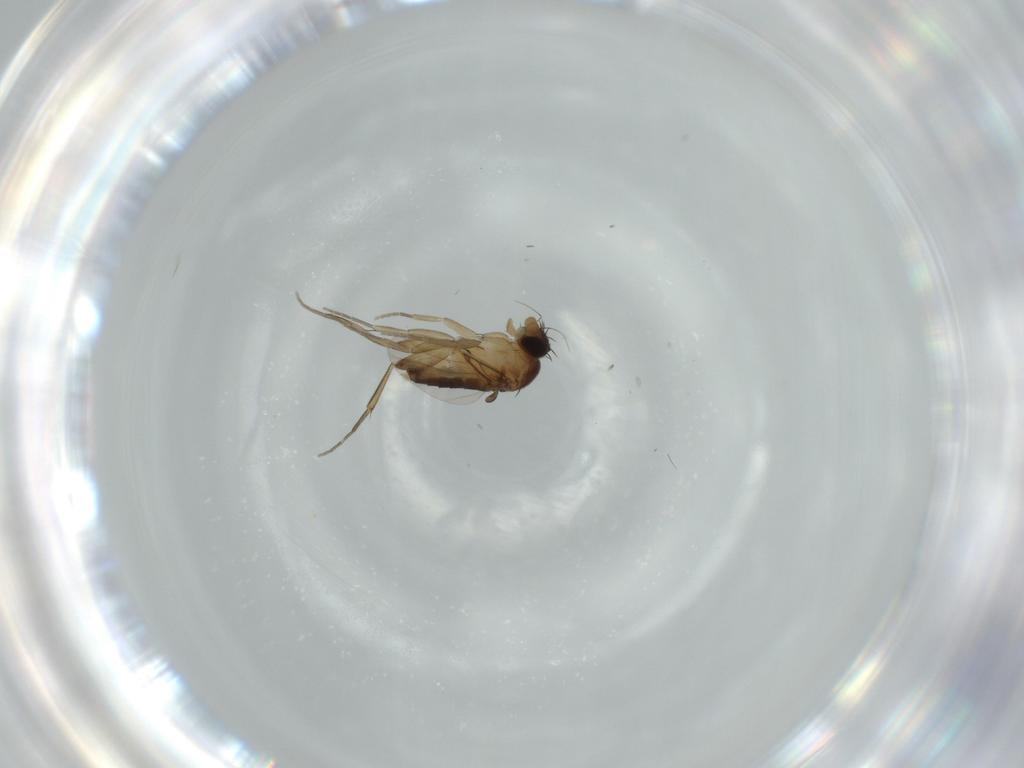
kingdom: Animalia
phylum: Arthropoda
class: Insecta
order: Diptera
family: Phoridae
